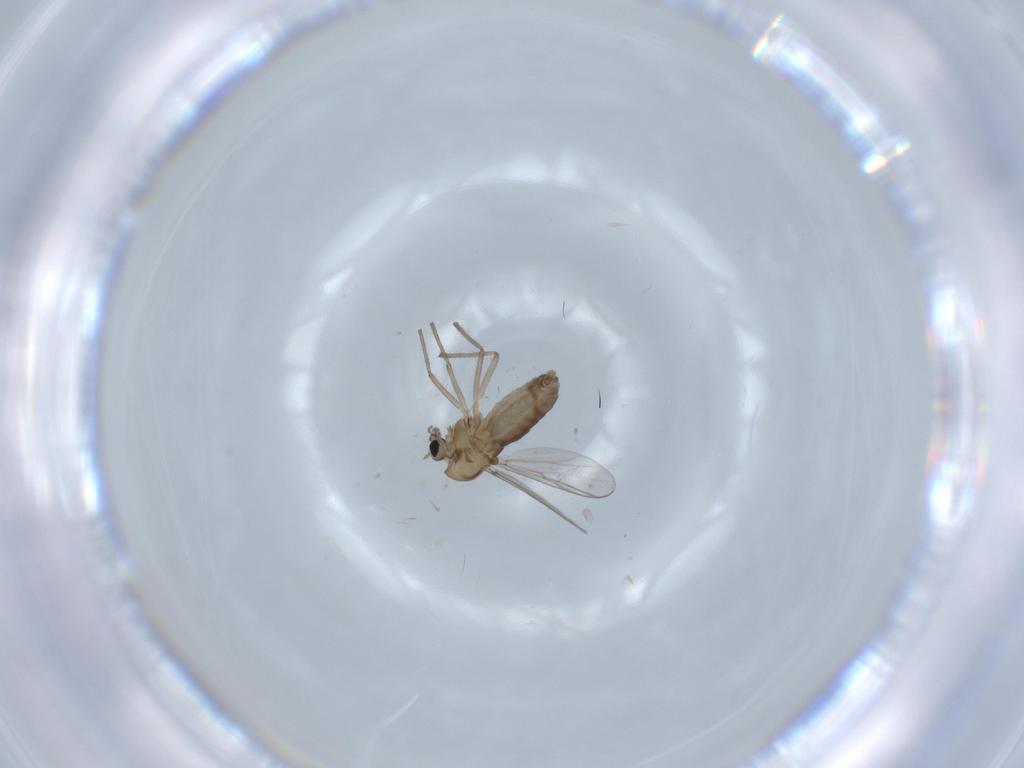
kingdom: Animalia
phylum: Arthropoda
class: Insecta
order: Diptera
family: Chironomidae
